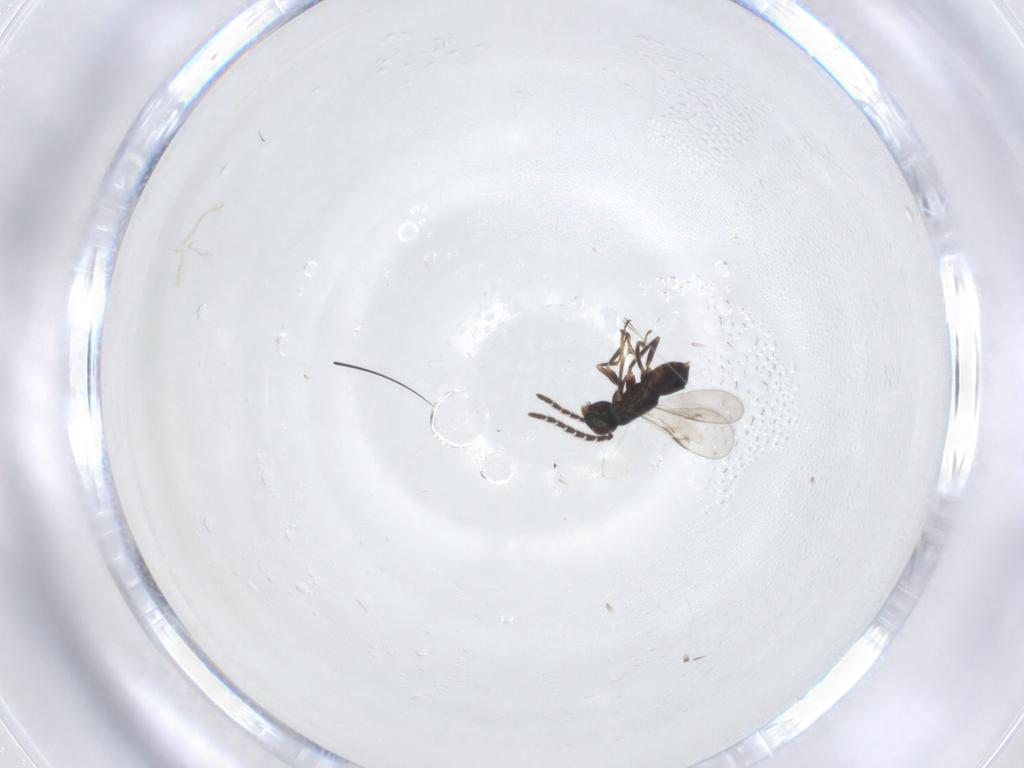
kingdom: Animalia
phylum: Arthropoda
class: Insecta
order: Hymenoptera
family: Encyrtidae
